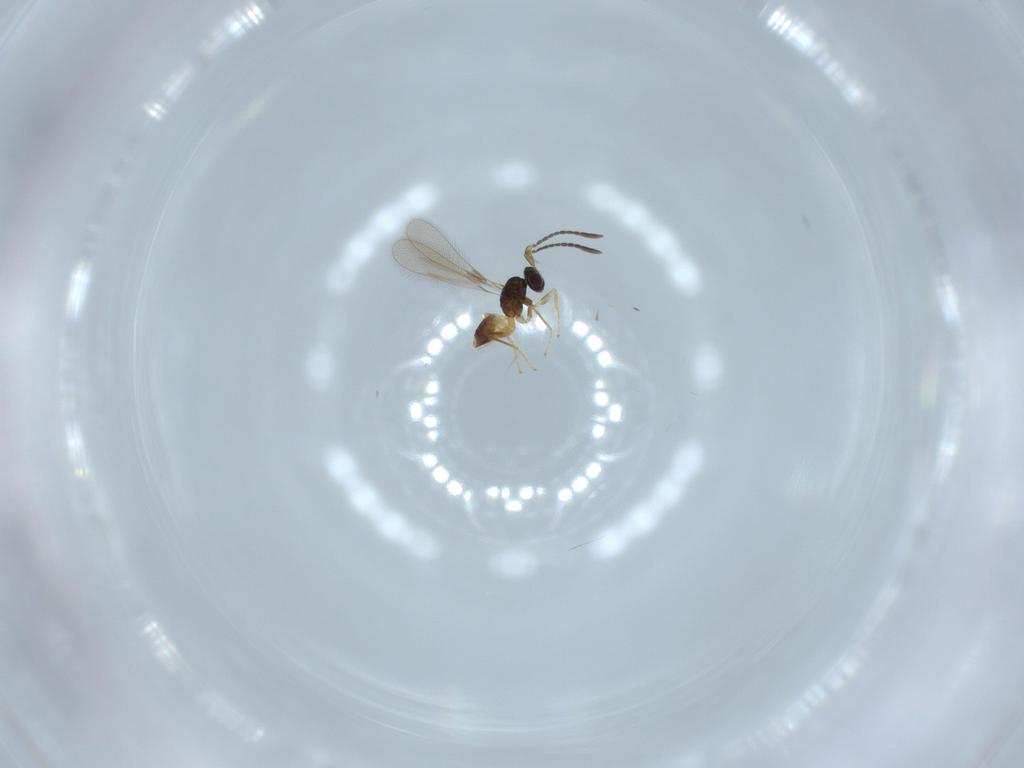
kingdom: Animalia
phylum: Arthropoda
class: Insecta
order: Hymenoptera
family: Mymaridae
